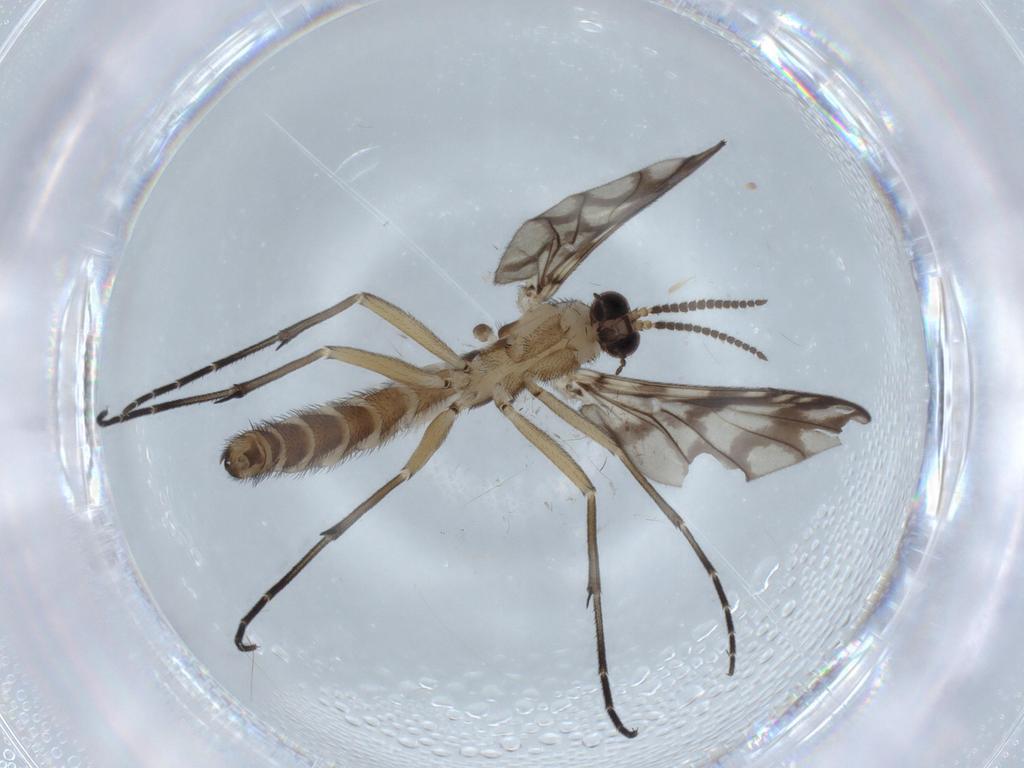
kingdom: Animalia
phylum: Arthropoda
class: Insecta
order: Diptera
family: Keroplatidae
